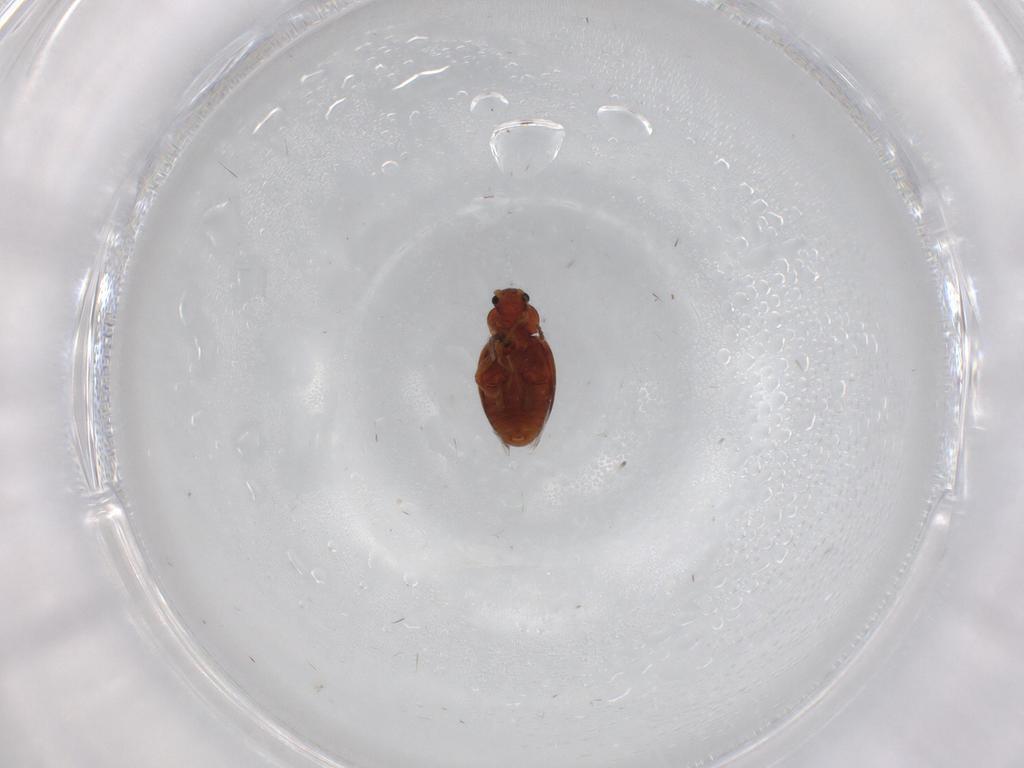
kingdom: Animalia
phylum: Arthropoda
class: Insecta
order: Coleoptera
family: Latridiidae
